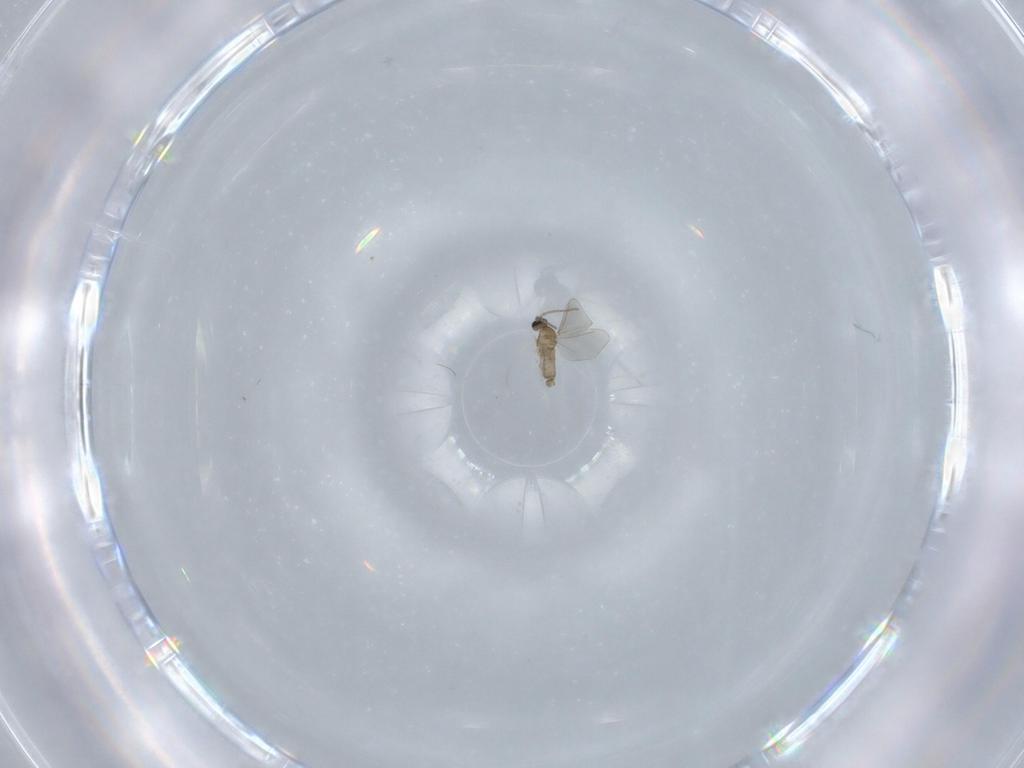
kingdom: Animalia
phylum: Arthropoda
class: Insecta
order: Diptera
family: Cecidomyiidae
